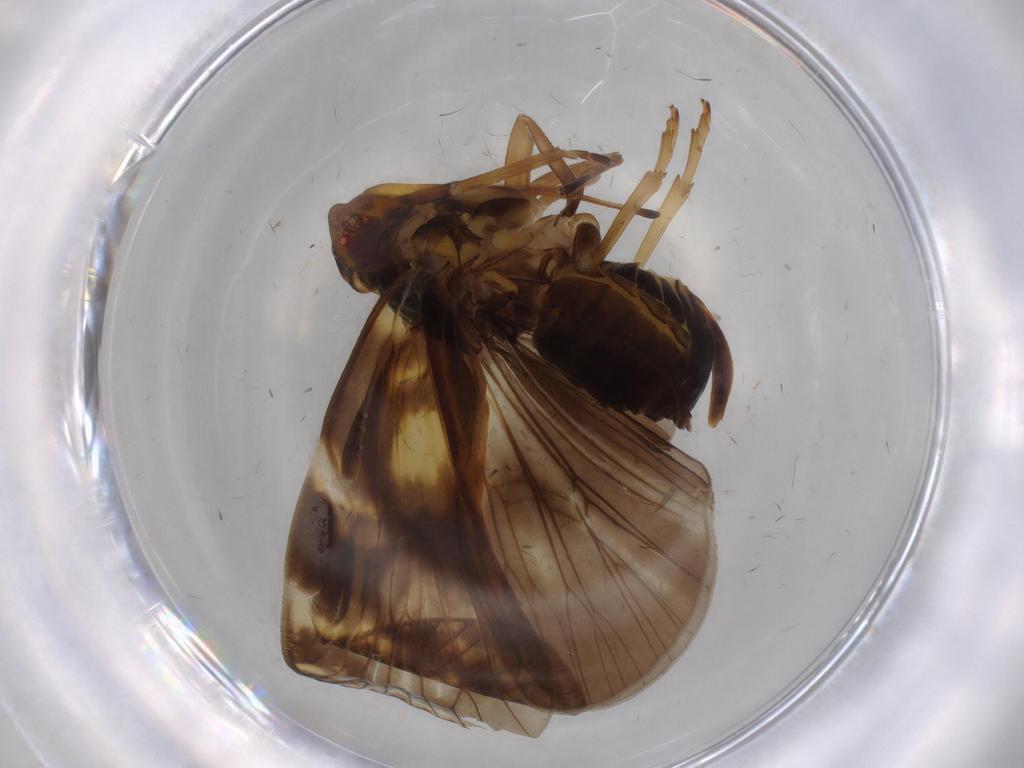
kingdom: Animalia
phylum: Arthropoda
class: Insecta
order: Hemiptera
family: Cixiidae
